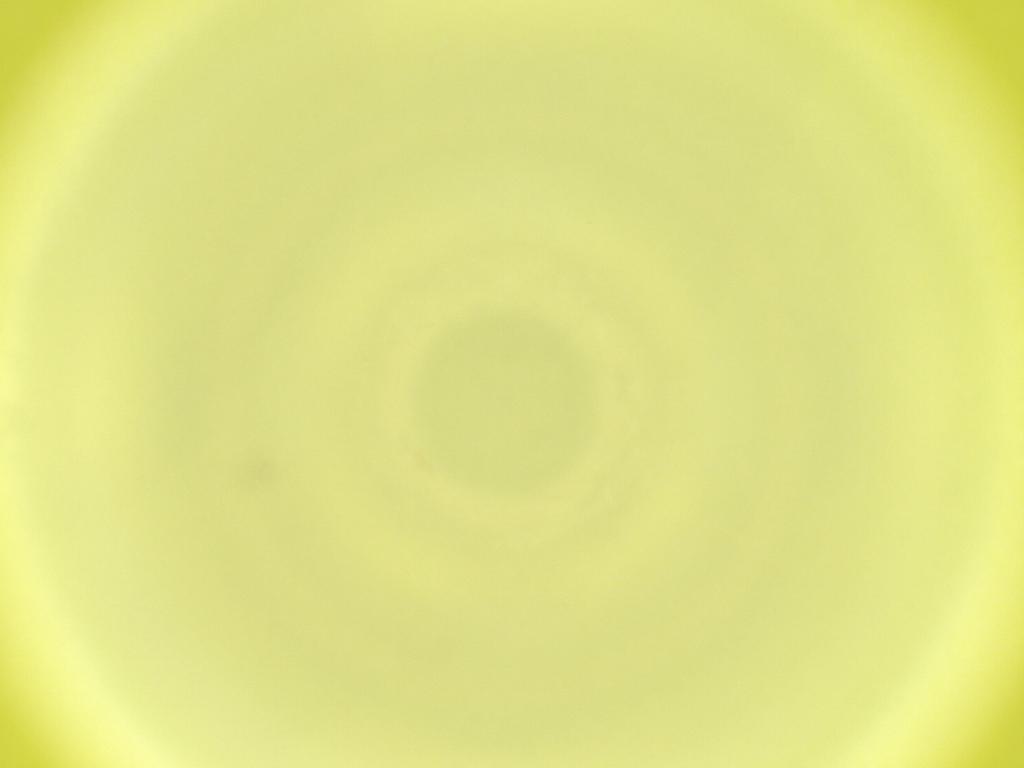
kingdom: Animalia
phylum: Arthropoda
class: Insecta
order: Diptera
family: Cecidomyiidae
